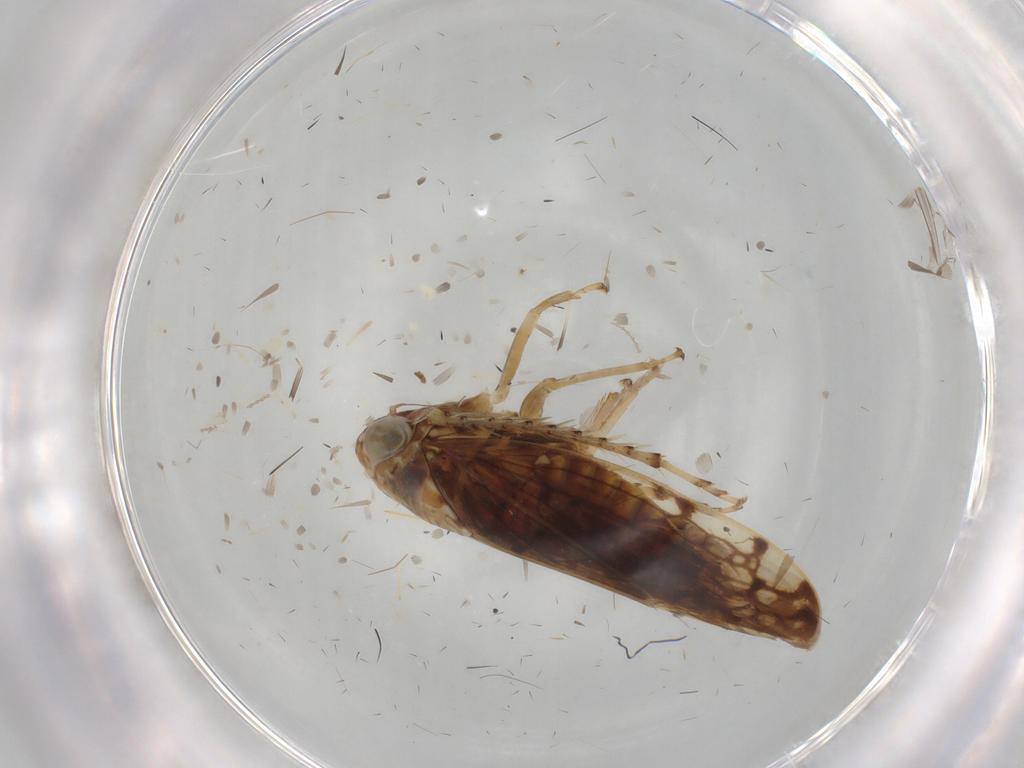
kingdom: Animalia
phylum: Arthropoda
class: Insecta
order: Hemiptera
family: Cicadellidae
